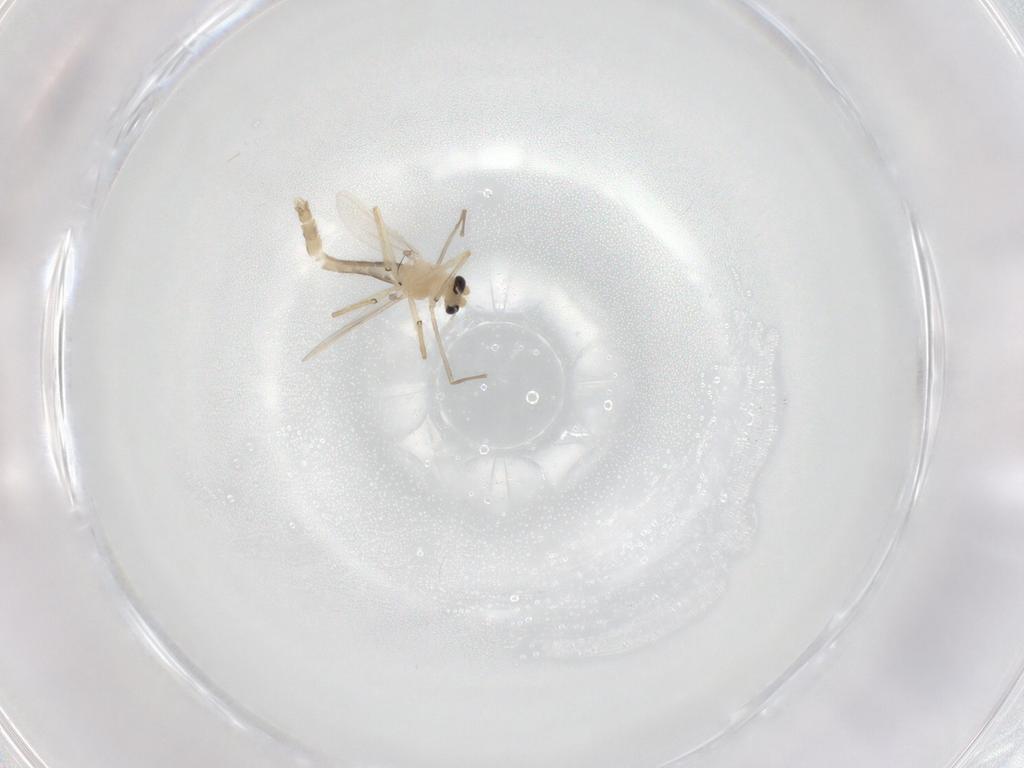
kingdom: Animalia
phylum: Arthropoda
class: Insecta
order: Diptera
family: Chironomidae
